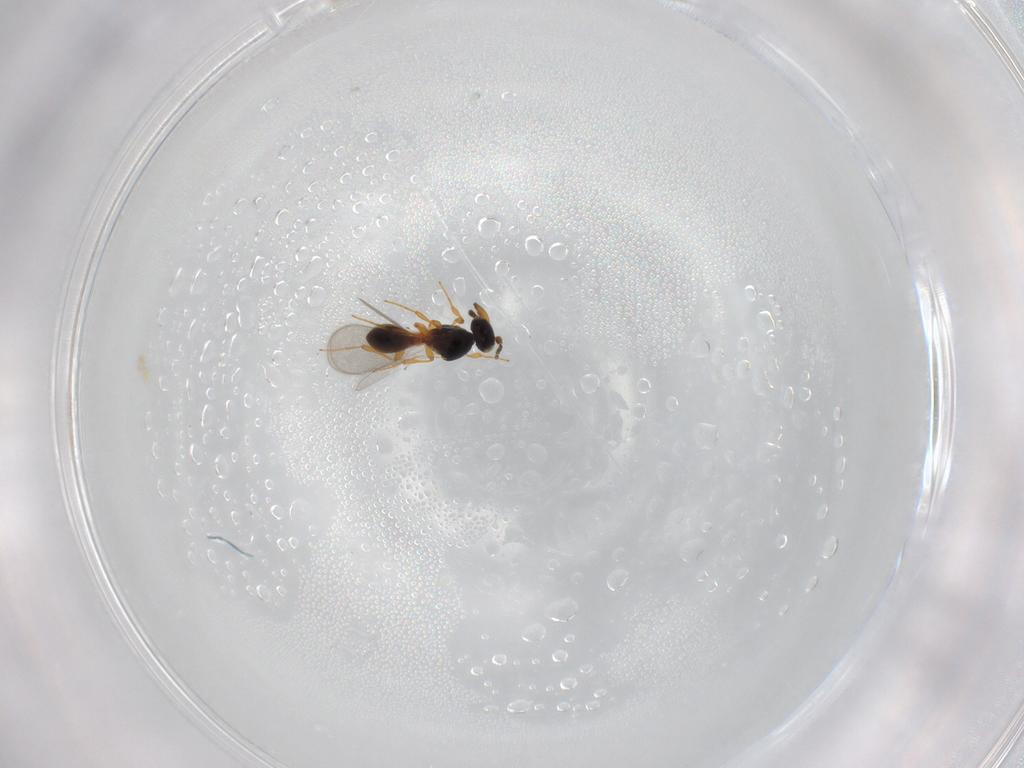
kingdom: Animalia
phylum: Arthropoda
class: Insecta
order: Hymenoptera
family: Platygastridae
